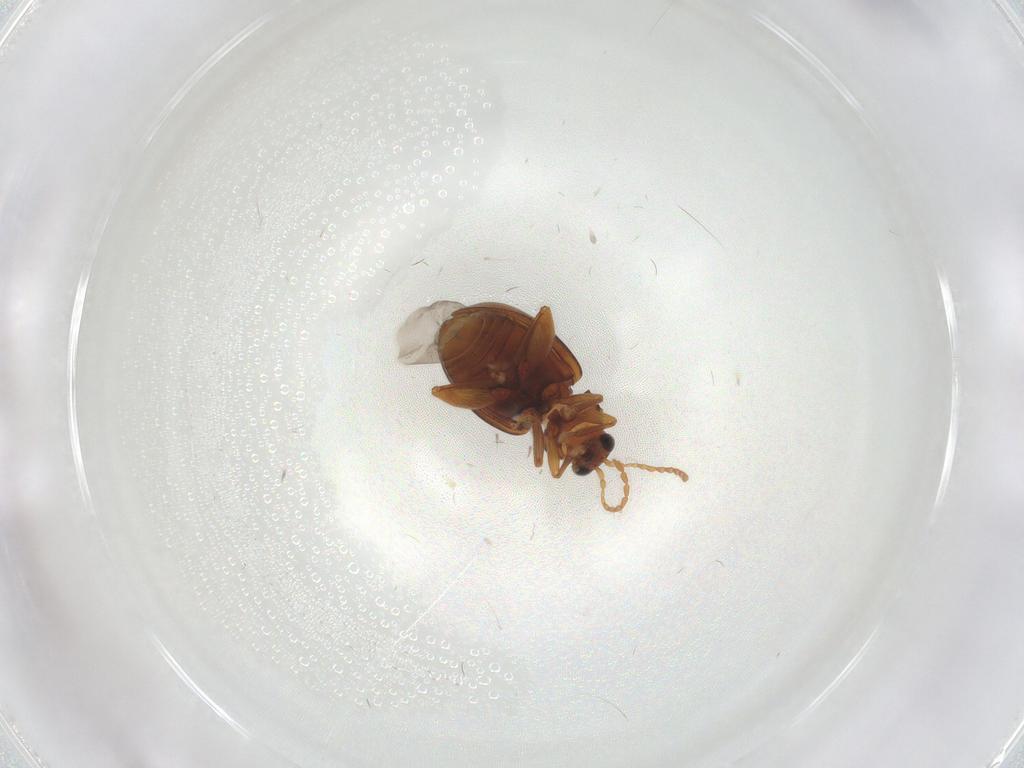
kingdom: Animalia
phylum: Arthropoda
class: Insecta
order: Coleoptera
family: Chrysomelidae
